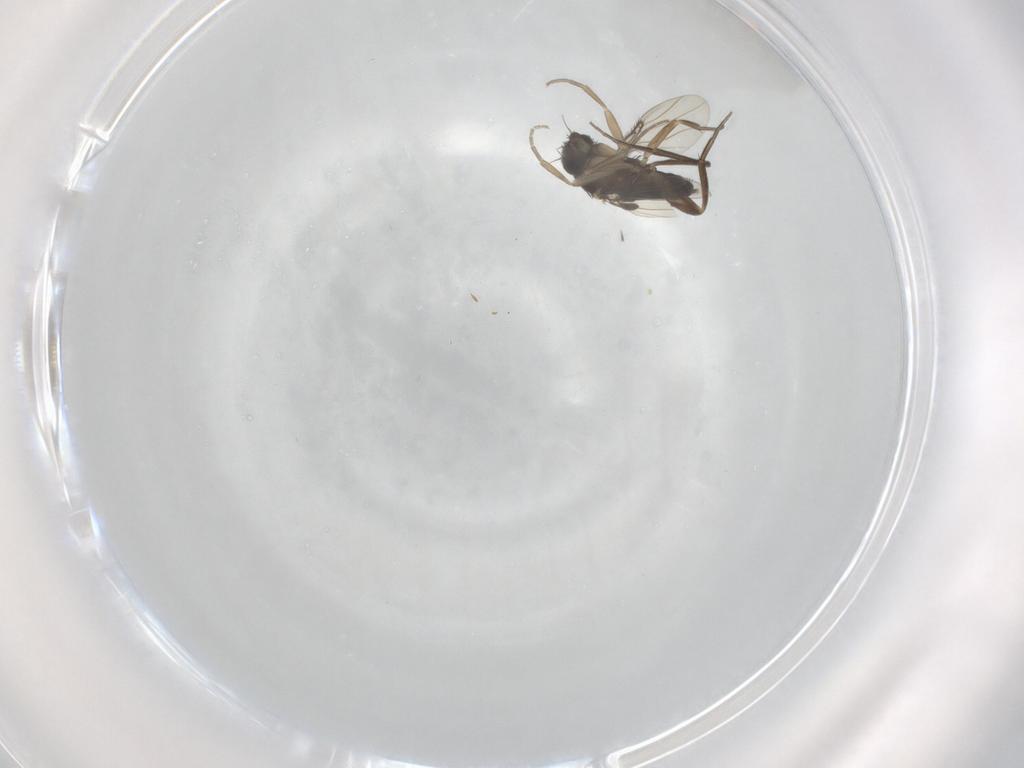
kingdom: Animalia
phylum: Arthropoda
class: Insecta
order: Diptera
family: Phoridae
